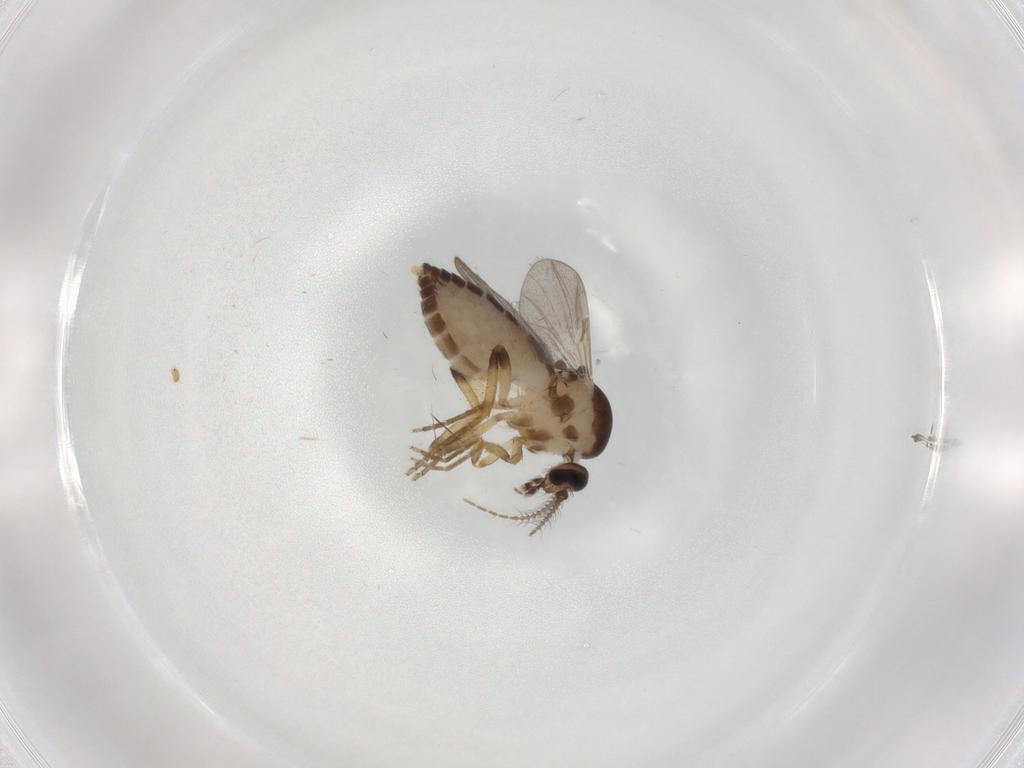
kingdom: Animalia
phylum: Arthropoda
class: Insecta
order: Diptera
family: Ceratopogonidae
